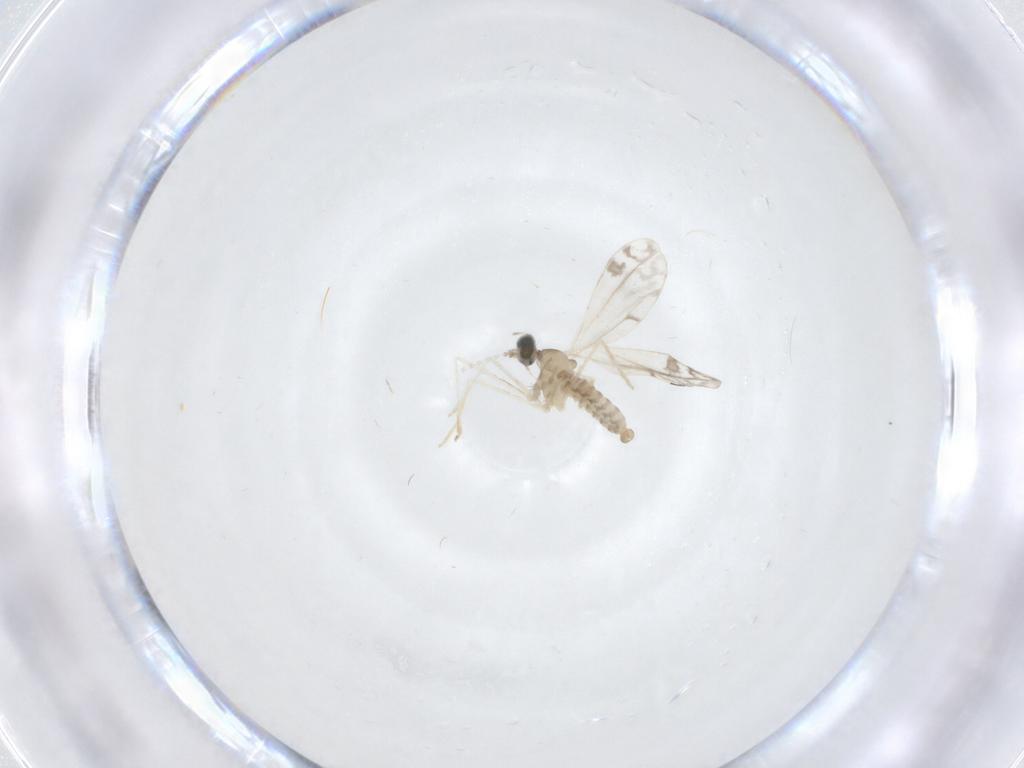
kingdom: Animalia
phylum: Arthropoda
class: Insecta
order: Diptera
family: Cecidomyiidae
